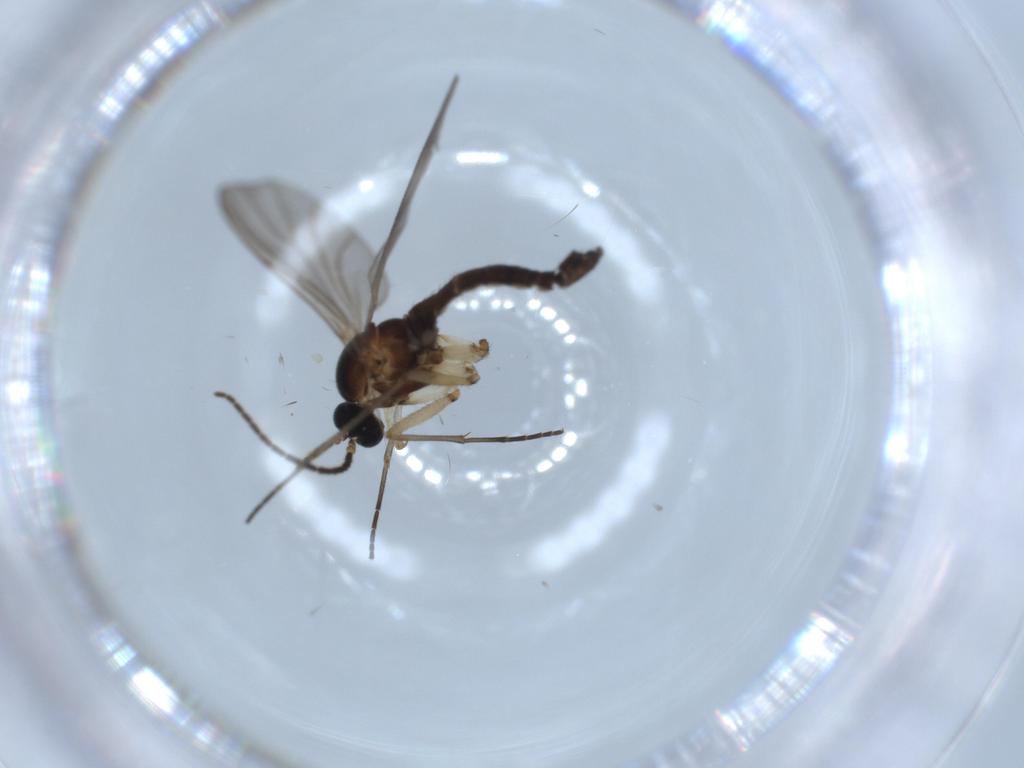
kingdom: Animalia
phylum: Arthropoda
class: Insecta
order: Diptera
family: Sciaridae
